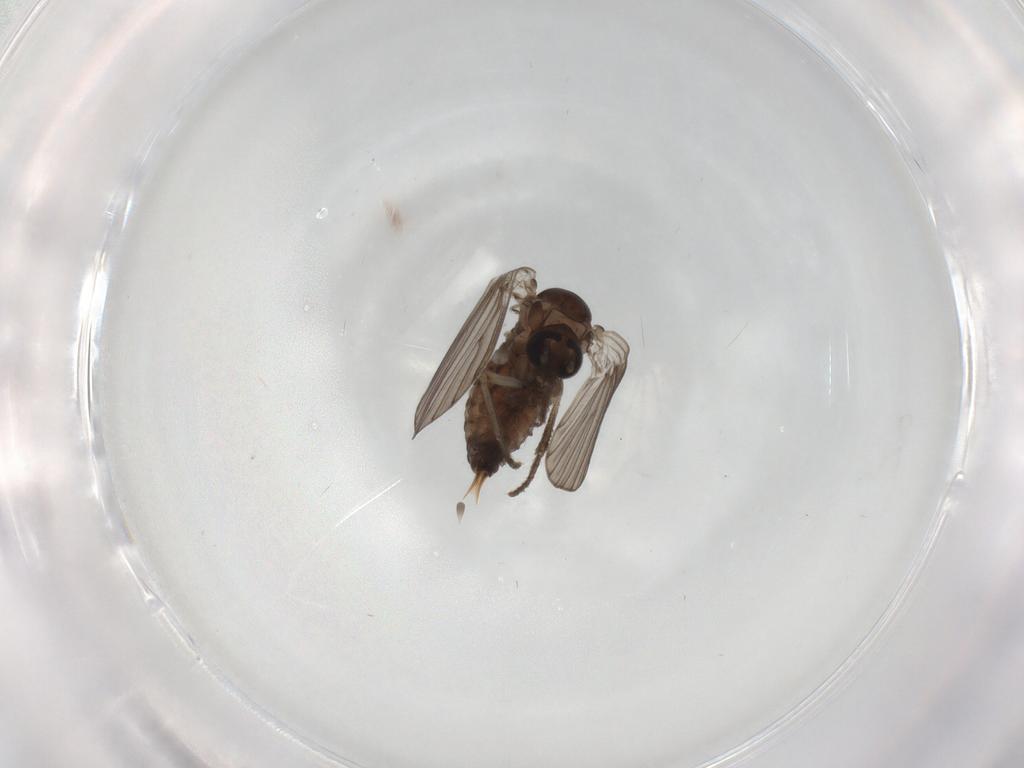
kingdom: Animalia
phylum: Arthropoda
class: Insecta
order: Diptera
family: Psychodidae
